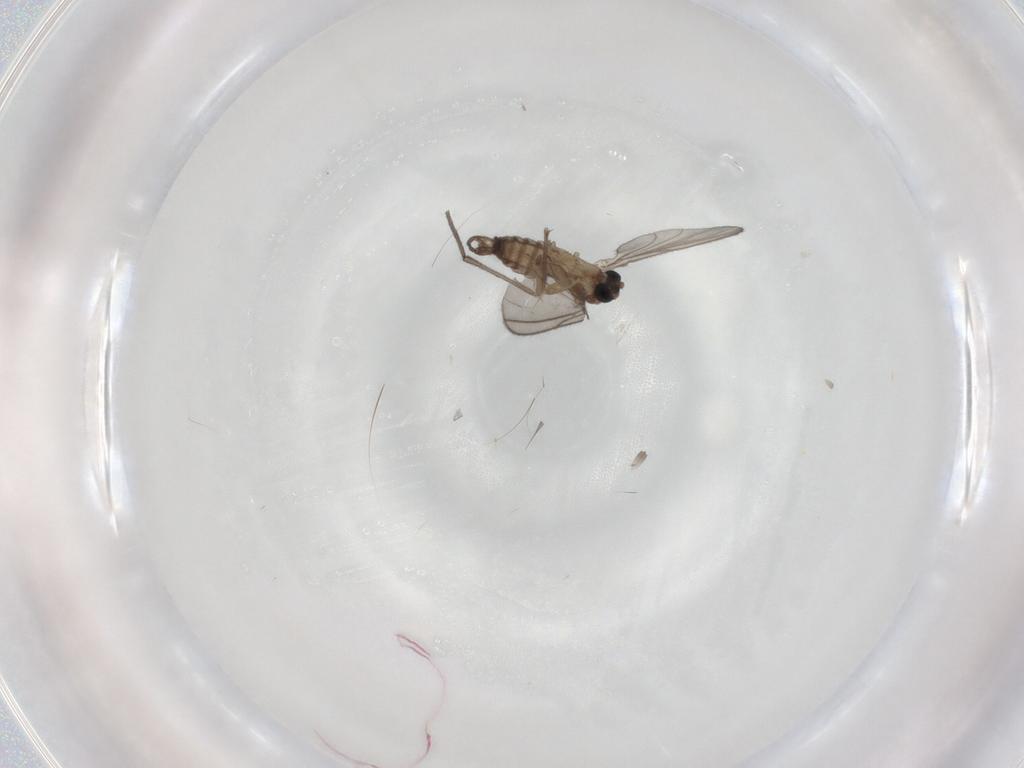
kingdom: Animalia
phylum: Arthropoda
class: Insecta
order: Diptera
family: Sciaridae
